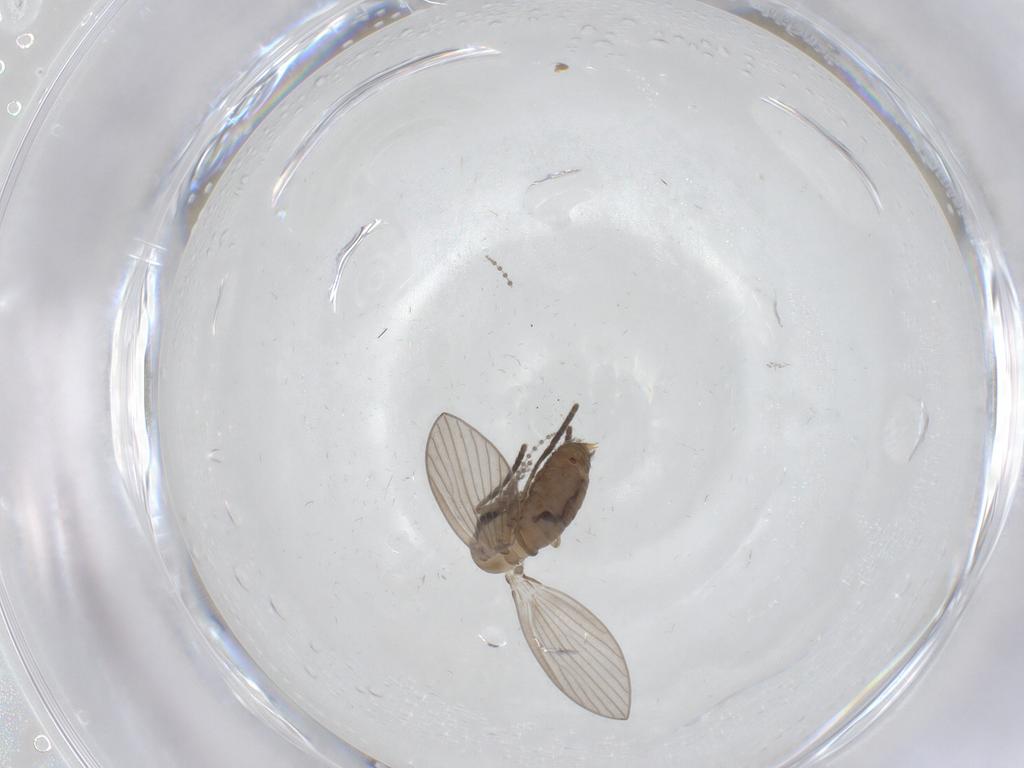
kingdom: Animalia
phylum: Arthropoda
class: Insecta
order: Diptera
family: Psychodidae
